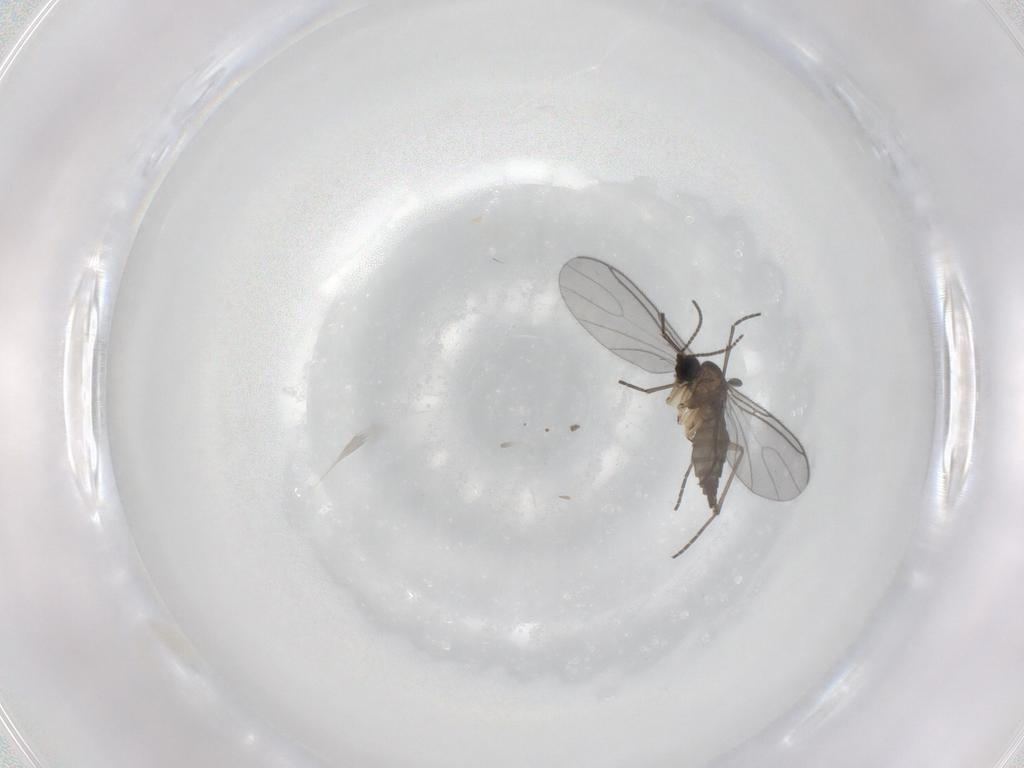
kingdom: Animalia
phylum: Arthropoda
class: Insecta
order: Diptera
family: Sciaridae
